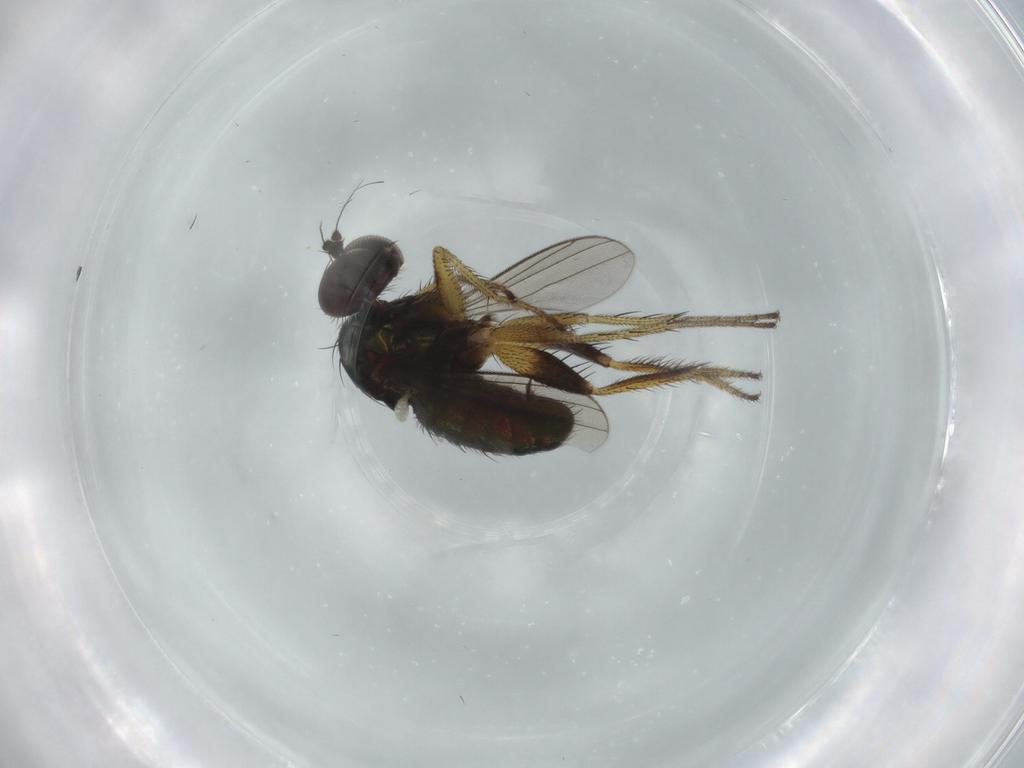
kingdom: Animalia
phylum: Arthropoda
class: Insecta
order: Diptera
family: Dolichopodidae
